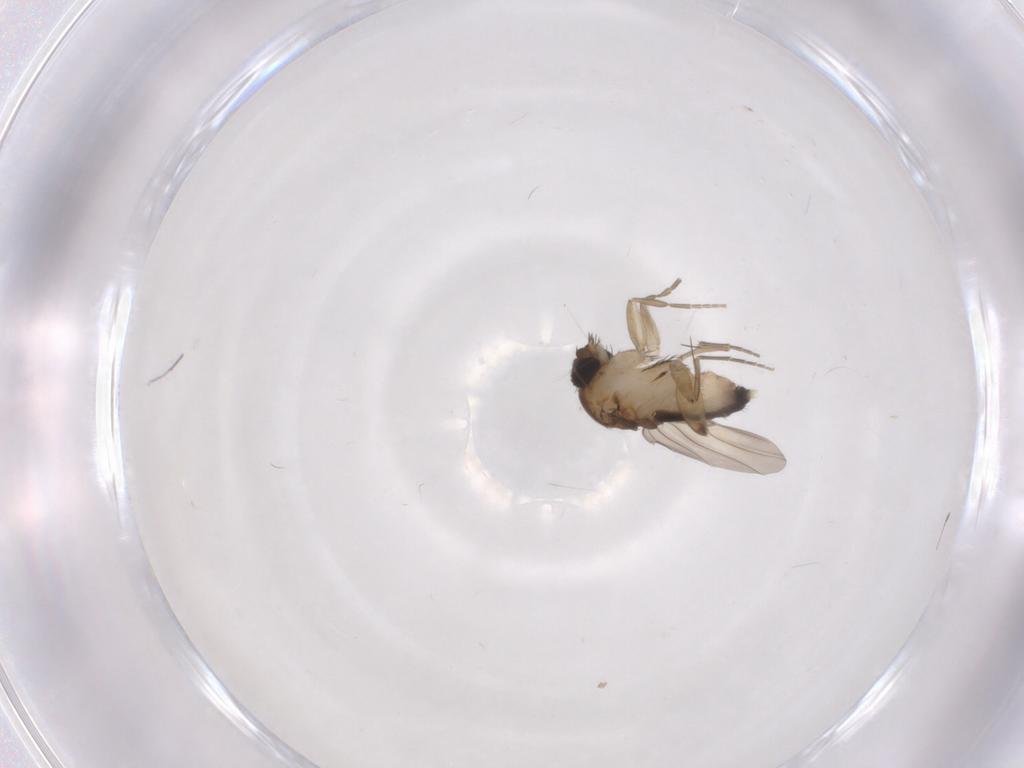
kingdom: Animalia
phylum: Arthropoda
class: Insecta
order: Diptera
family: Phoridae
